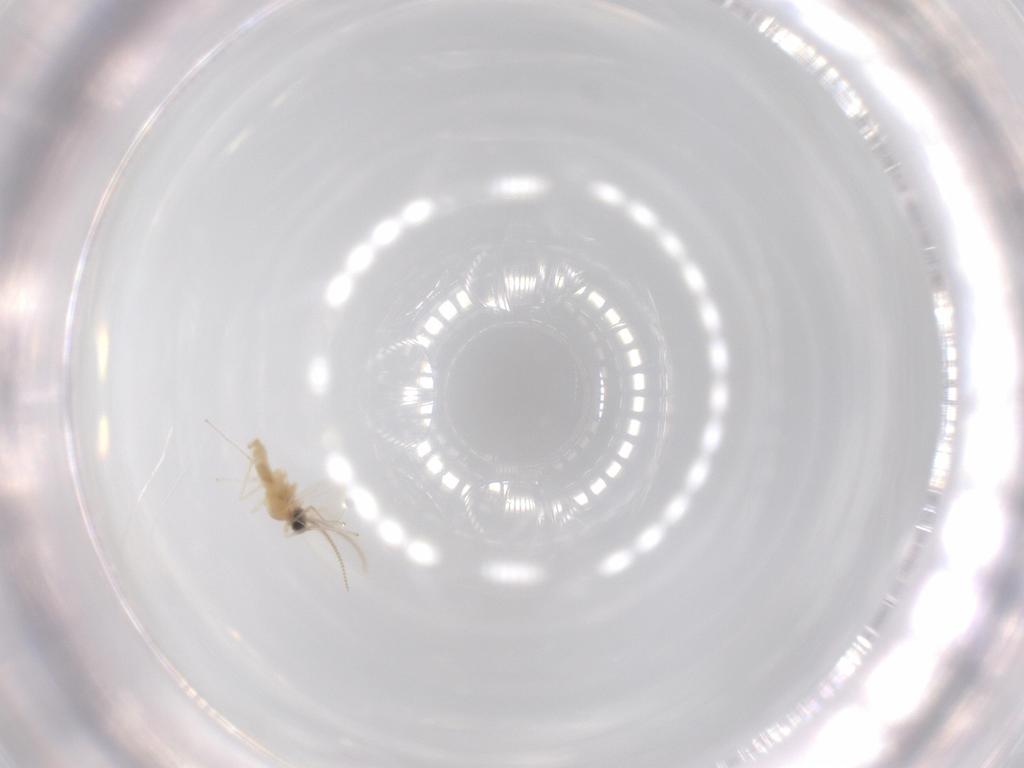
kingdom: Animalia
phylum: Arthropoda
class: Insecta
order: Diptera
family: Cecidomyiidae
